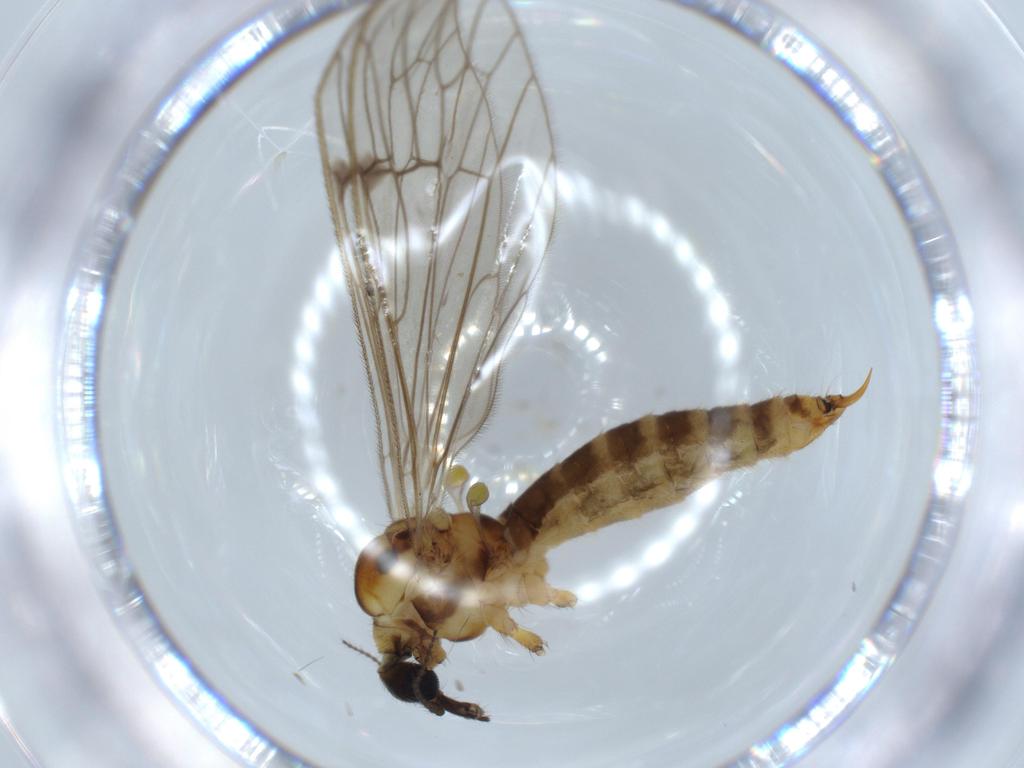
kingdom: Animalia
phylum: Arthropoda
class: Insecta
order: Diptera
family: Limoniidae
